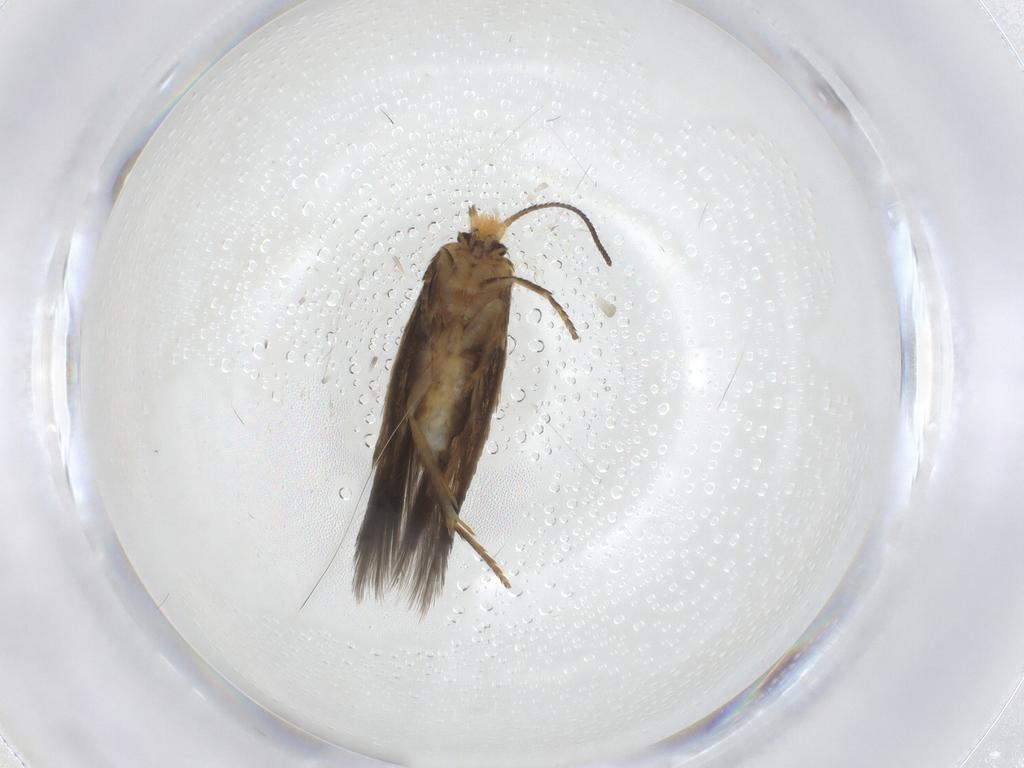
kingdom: Animalia
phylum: Arthropoda
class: Insecta
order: Lepidoptera
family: Nepticulidae
